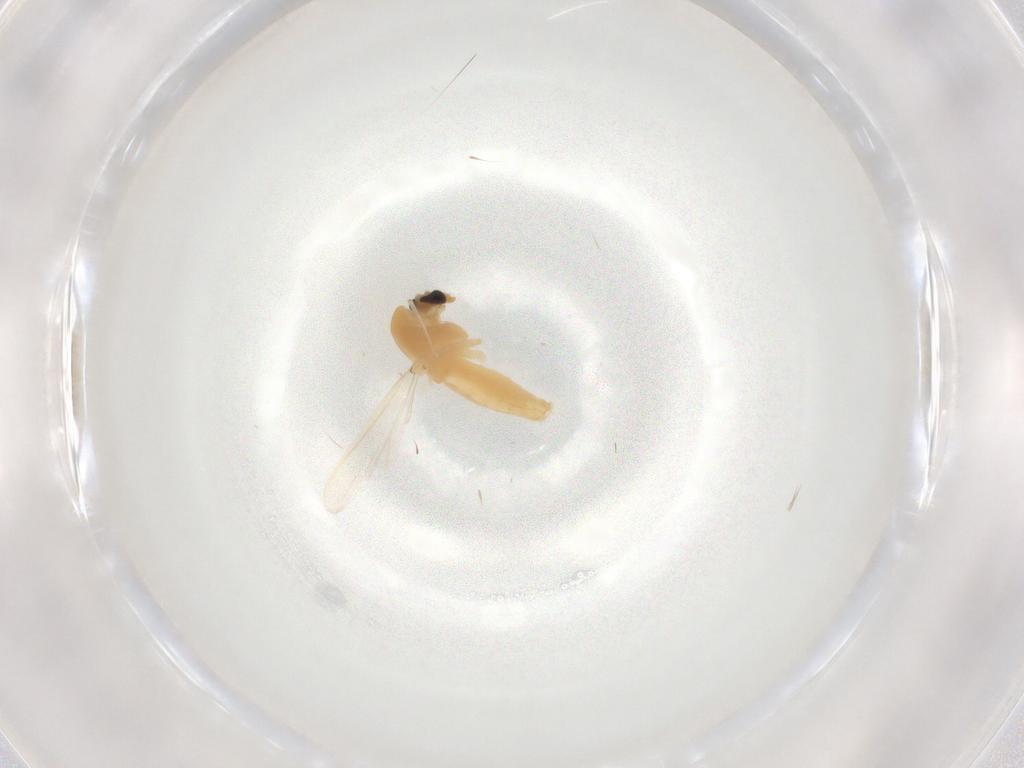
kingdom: Animalia
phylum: Arthropoda
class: Insecta
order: Diptera
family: Chironomidae
